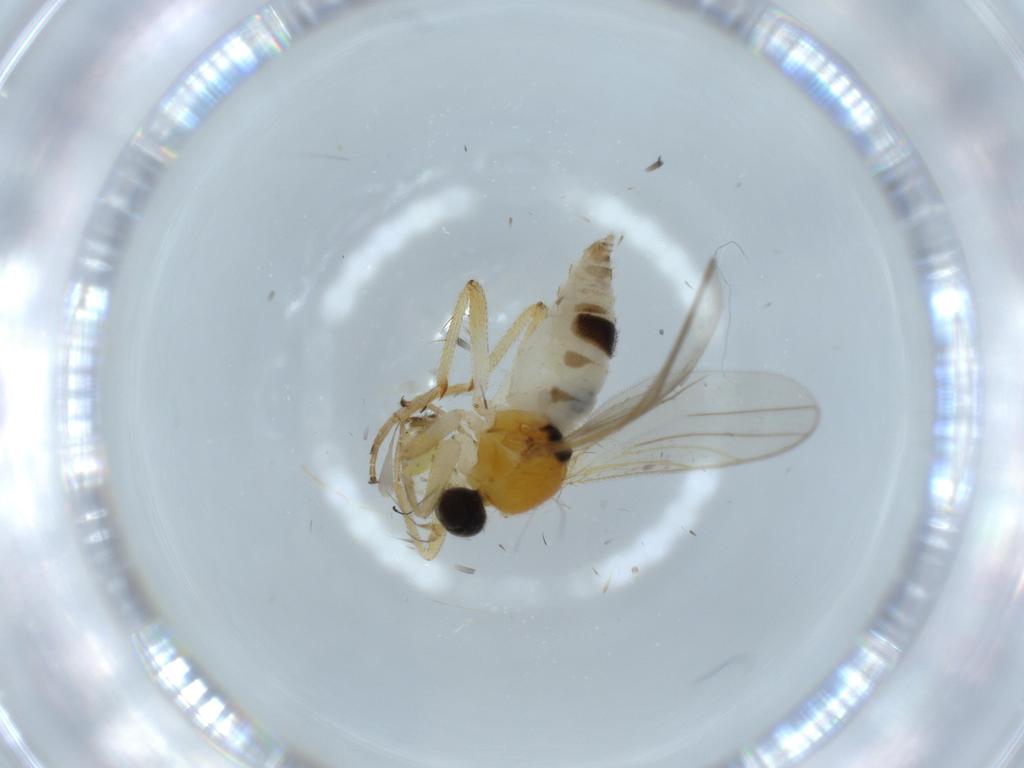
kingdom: Animalia
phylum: Arthropoda
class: Insecta
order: Diptera
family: Hybotidae
